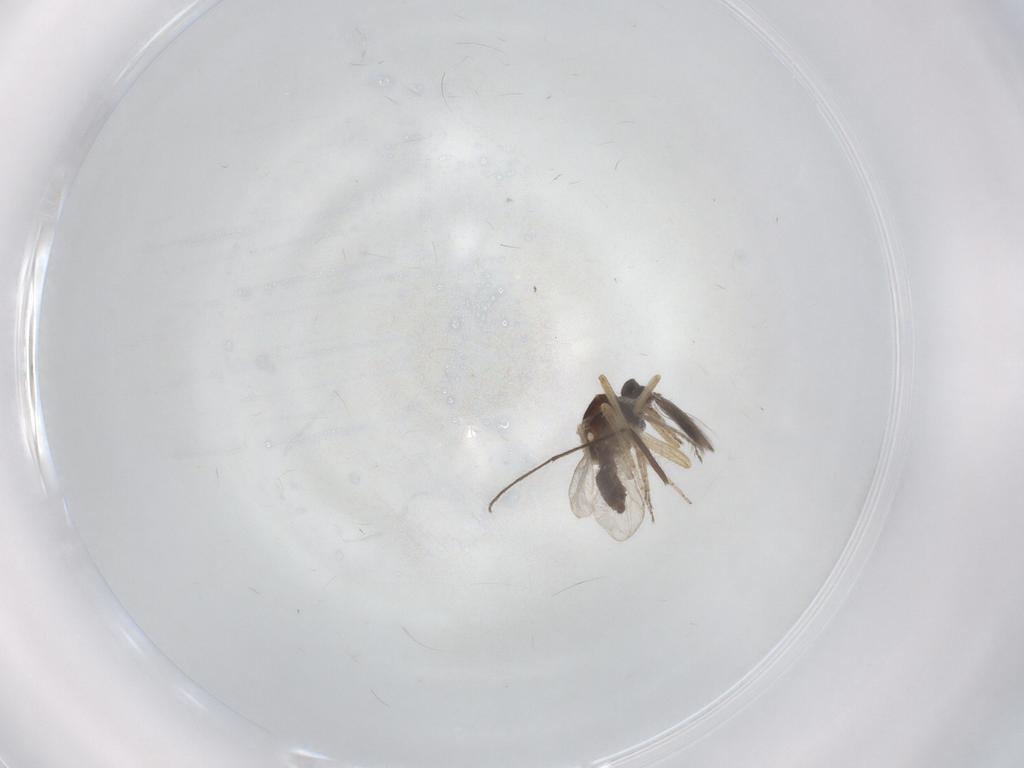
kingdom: Animalia
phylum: Arthropoda
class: Insecta
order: Diptera
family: Ceratopogonidae
